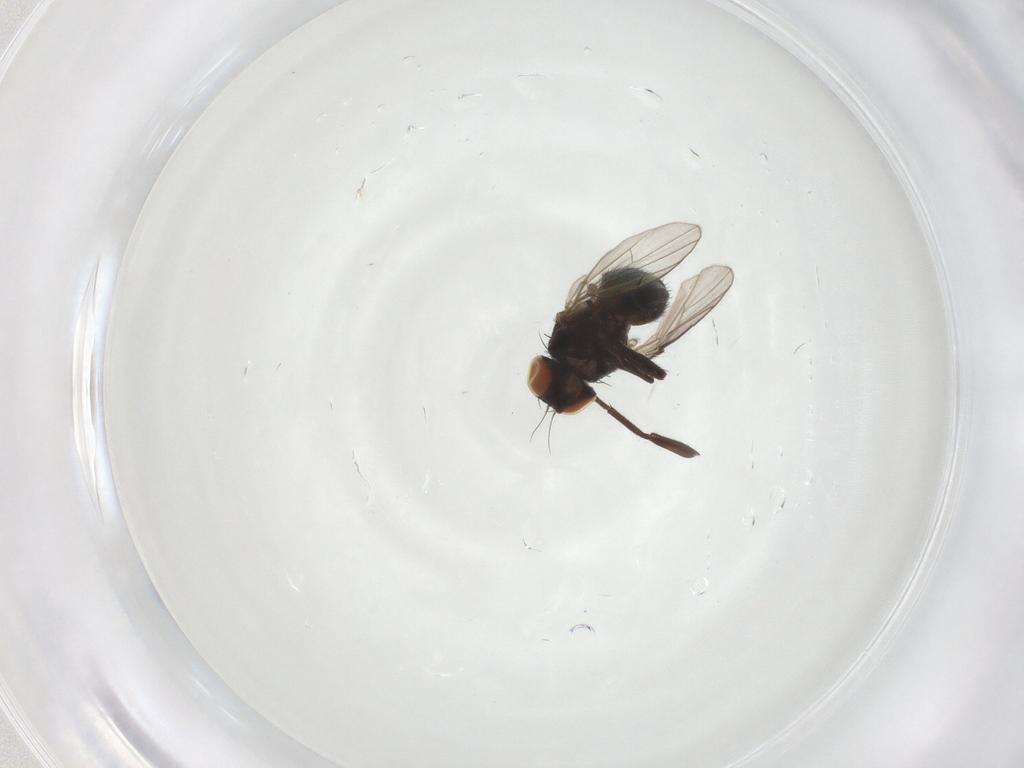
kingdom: Animalia
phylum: Arthropoda
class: Insecta
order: Diptera
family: Agromyzidae
